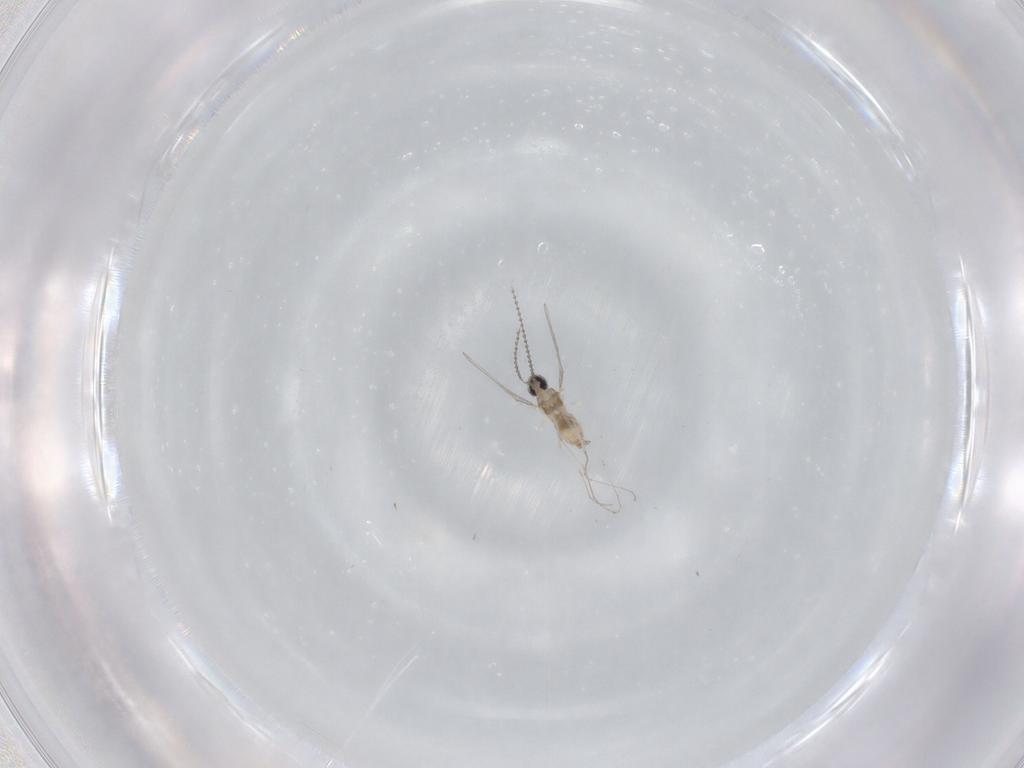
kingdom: Animalia
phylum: Arthropoda
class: Insecta
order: Diptera
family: Cecidomyiidae
